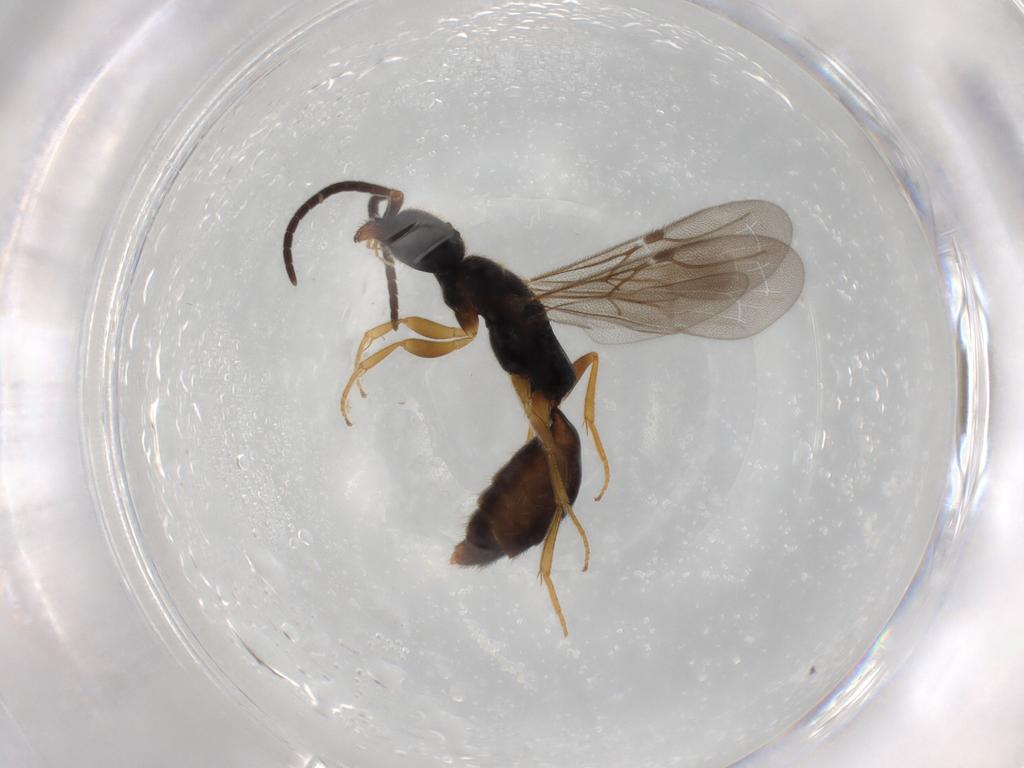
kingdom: Animalia
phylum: Arthropoda
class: Insecta
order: Hymenoptera
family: Bethylidae
